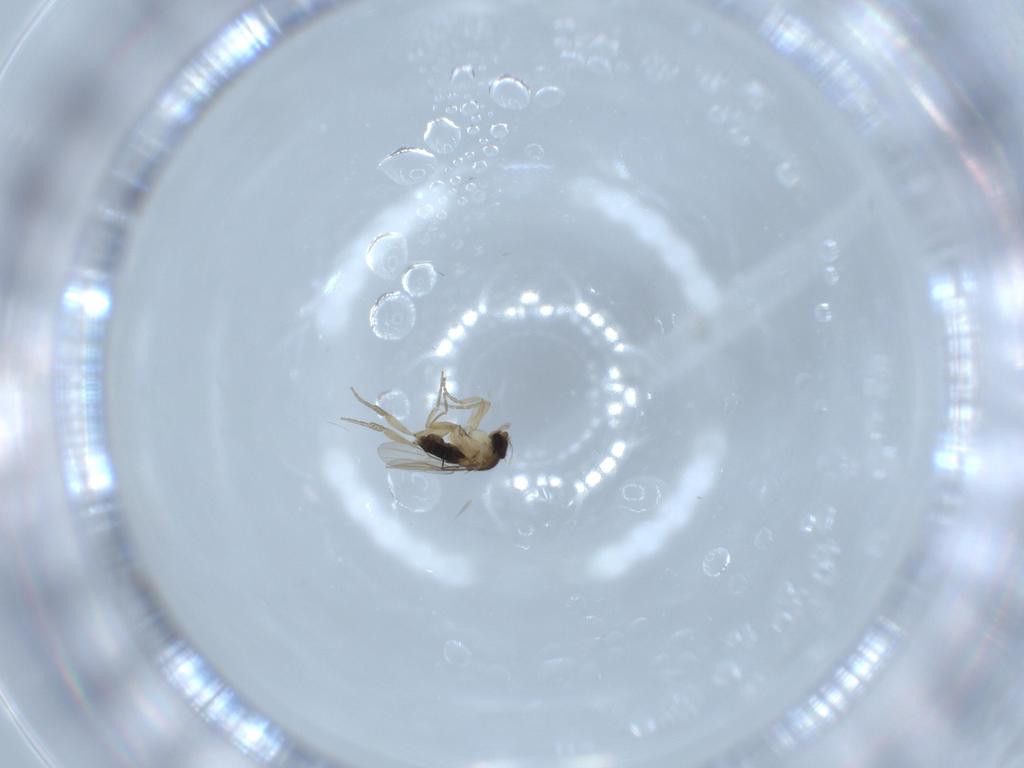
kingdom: Animalia
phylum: Arthropoda
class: Insecta
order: Diptera
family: Phoridae
